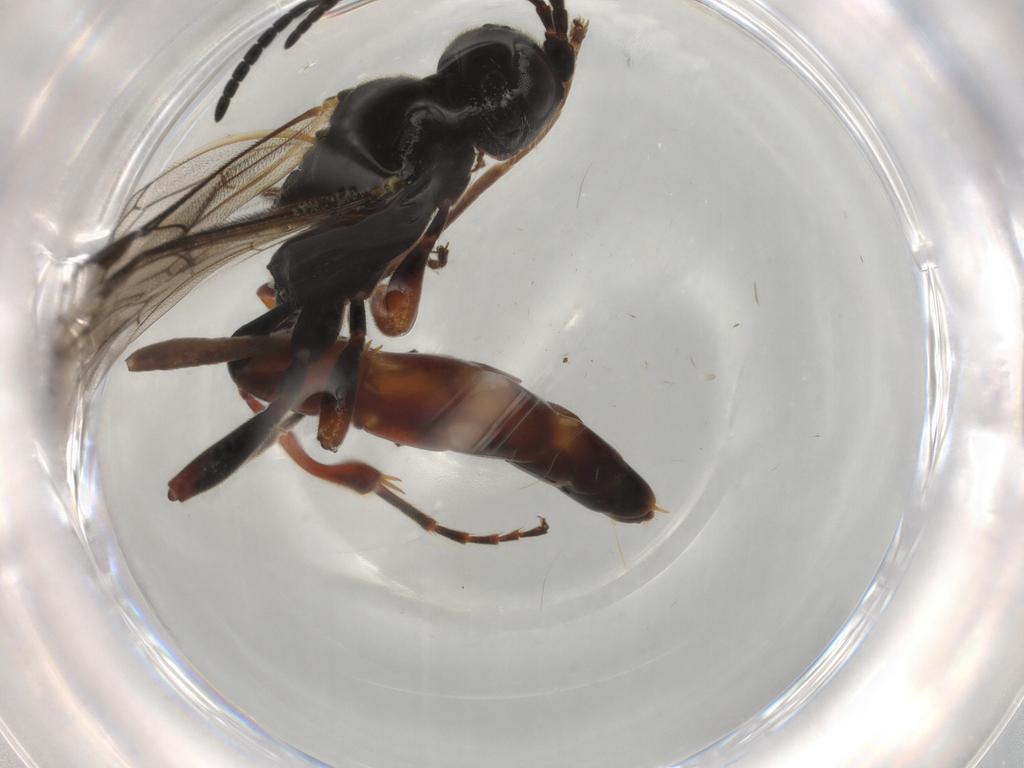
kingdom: Animalia
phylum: Arthropoda
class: Insecta
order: Hymenoptera
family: Ichneumonidae
